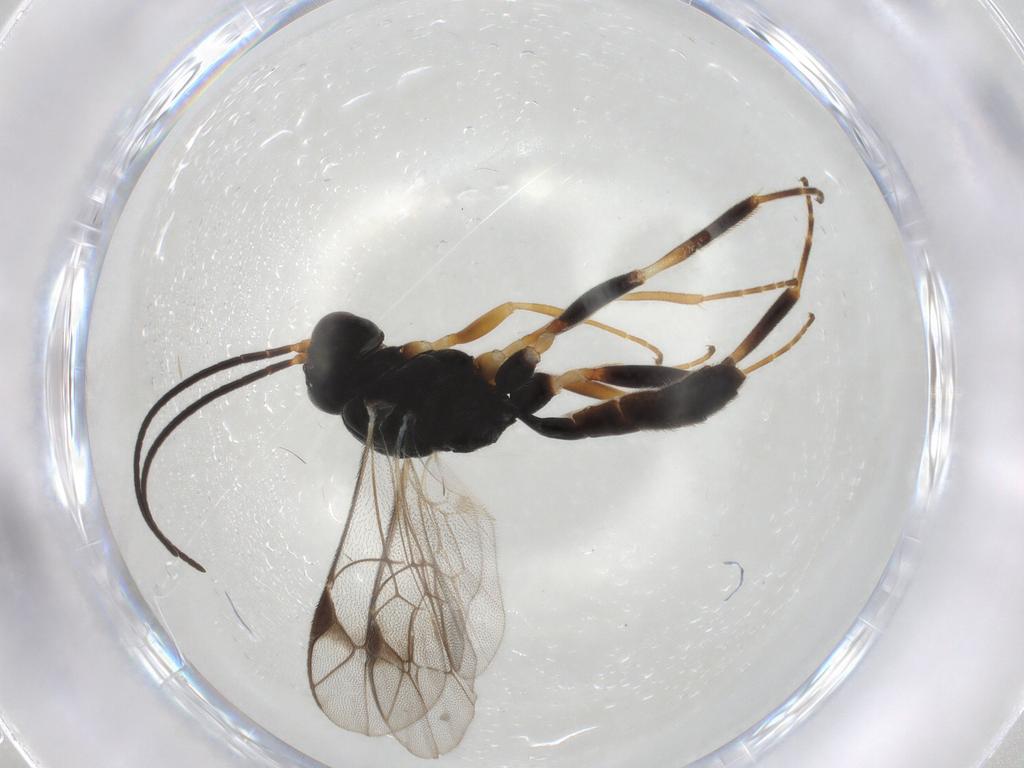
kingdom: Animalia
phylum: Arthropoda
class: Insecta
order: Hymenoptera
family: Ichneumonidae
